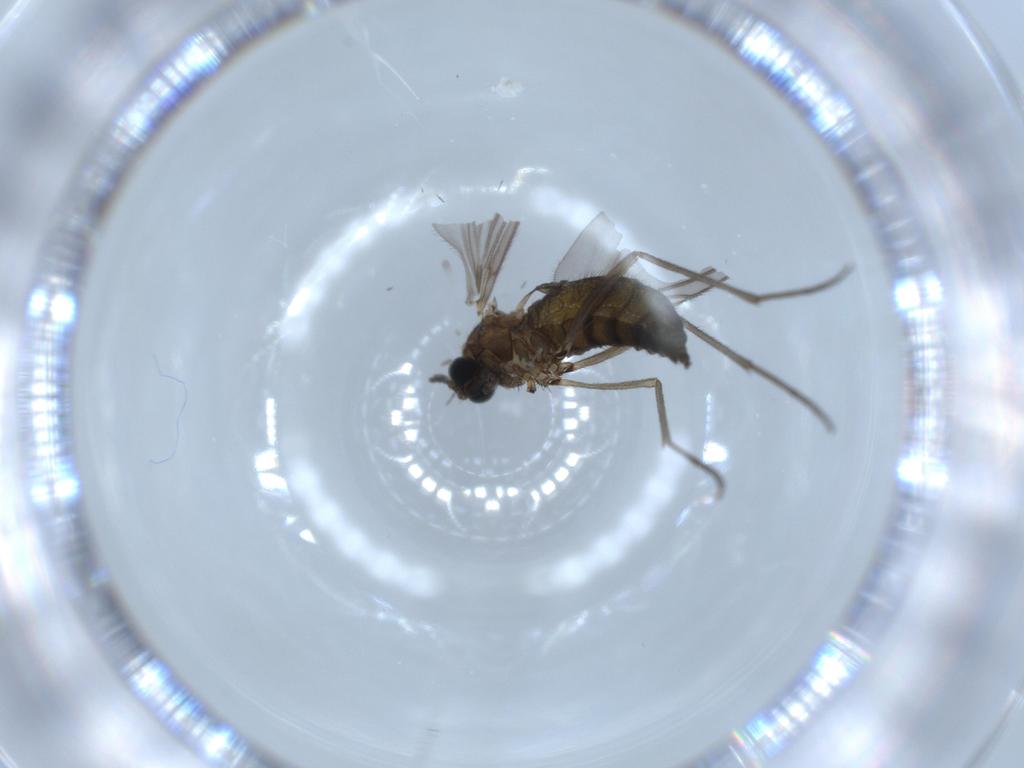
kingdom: Animalia
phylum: Arthropoda
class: Insecta
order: Diptera
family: Sciaridae
